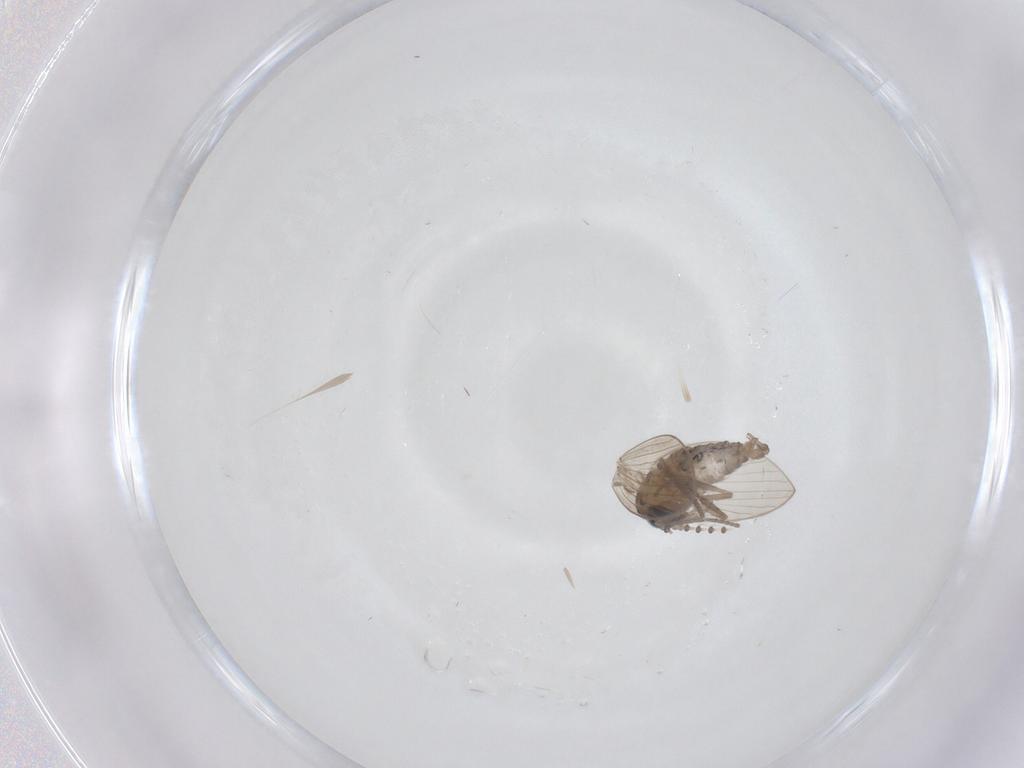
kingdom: Animalia
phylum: Arthropoda
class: Insecta
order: Diptera
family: Psychodidae
